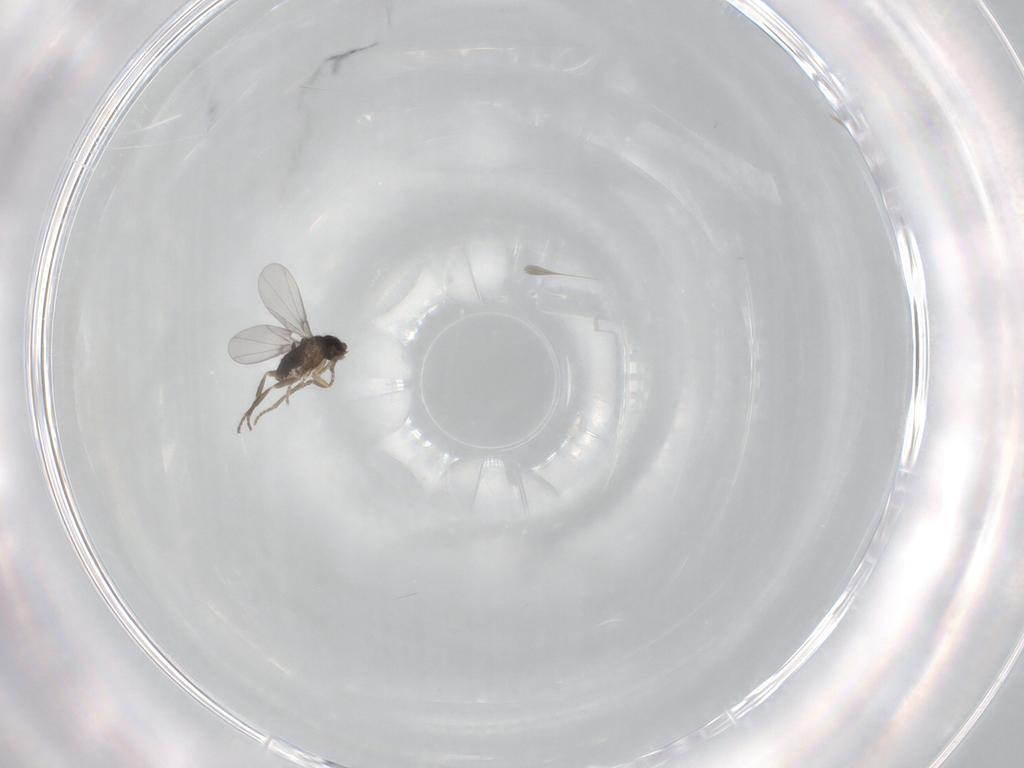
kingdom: Animalia
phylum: Arthropoda
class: Insecta
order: Diptera
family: Phoridae
